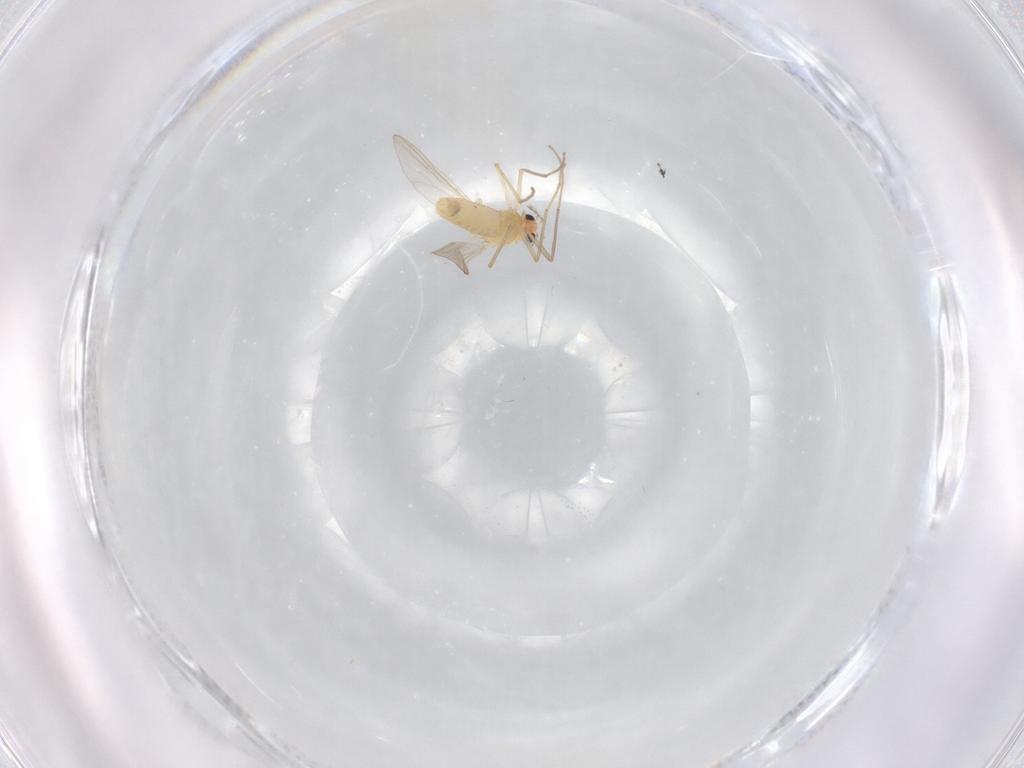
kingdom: Animalia
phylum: Arthropoda
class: Insecta
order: Diptera
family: Chironomidae
